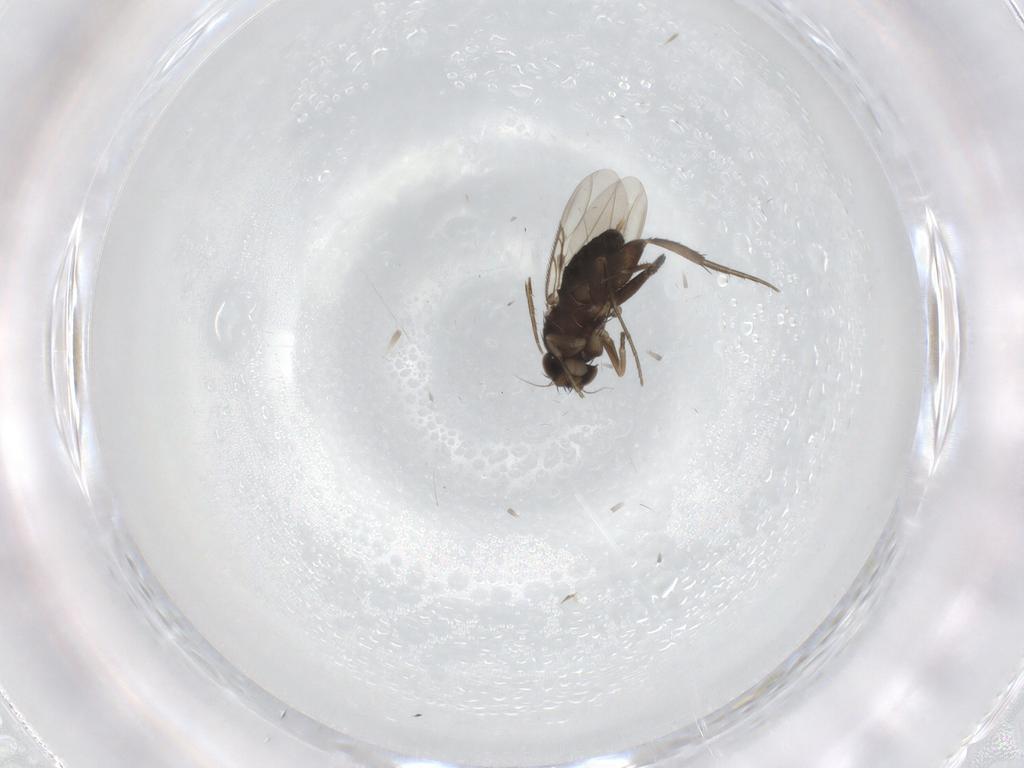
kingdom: Animalia
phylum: Arthropoda
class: Insecta
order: Diptera
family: Phoridae
